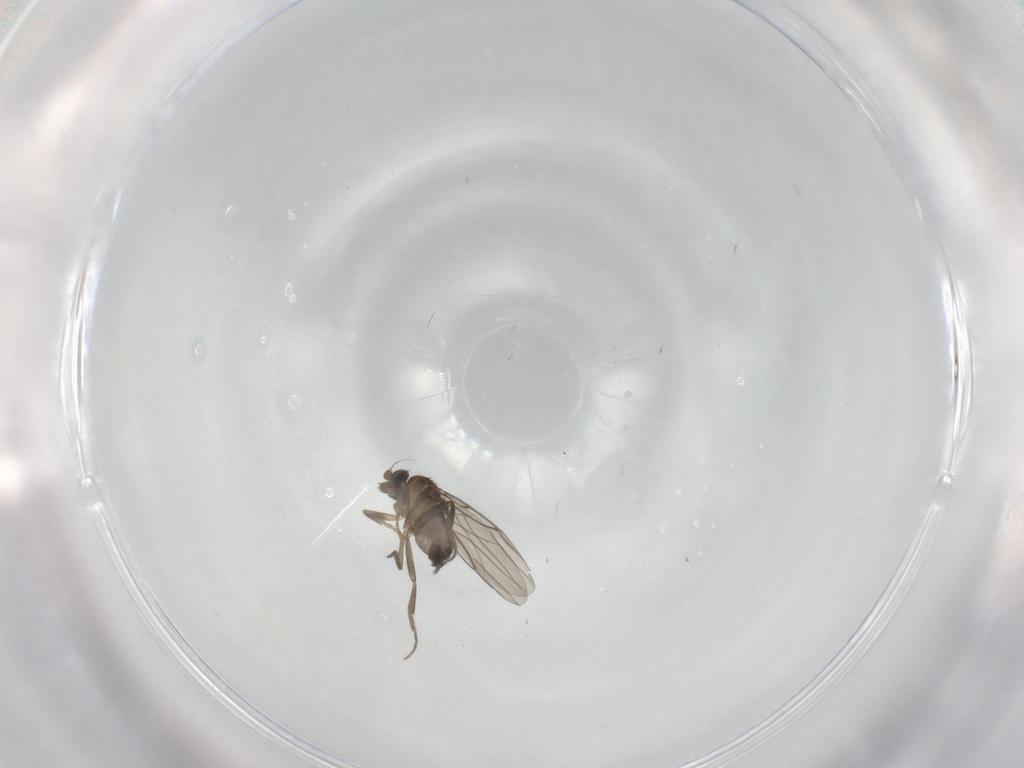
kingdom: Animalia
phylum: Arthropoda
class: Insecta
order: Diptera
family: Phoridae
